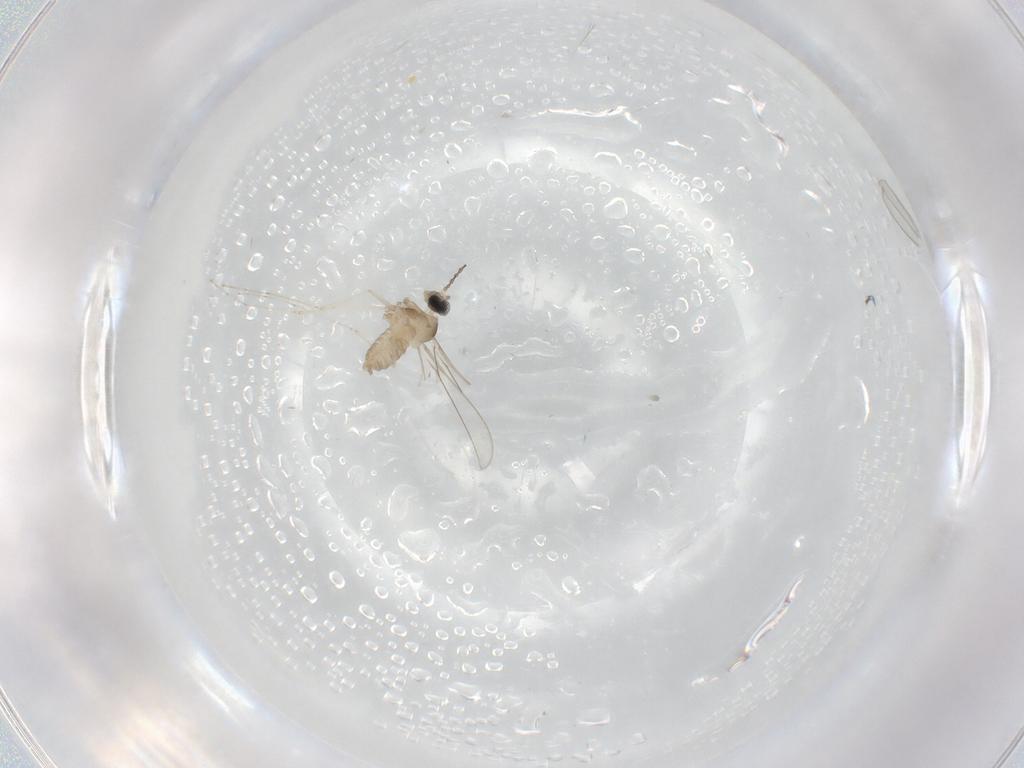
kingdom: Animalia
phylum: Arthropoda
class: Insecta
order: Diptera
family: Cecidomyiidae
